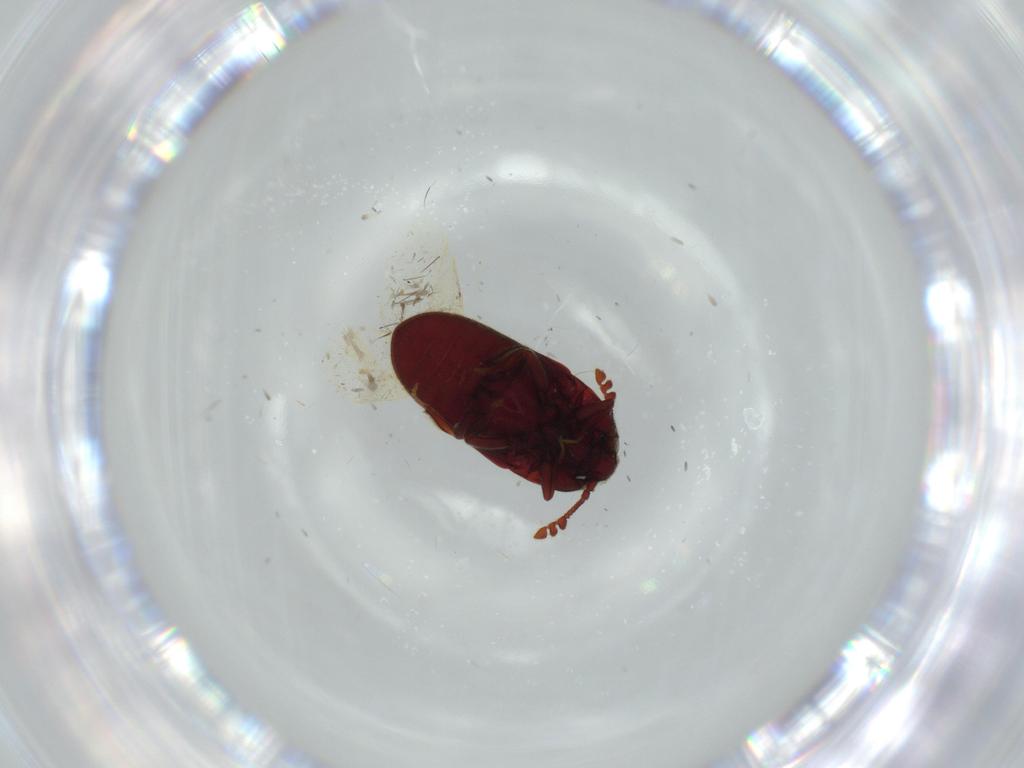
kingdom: Animalia
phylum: Arthropoda
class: Insecta
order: Coleoptera
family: Throscidae
